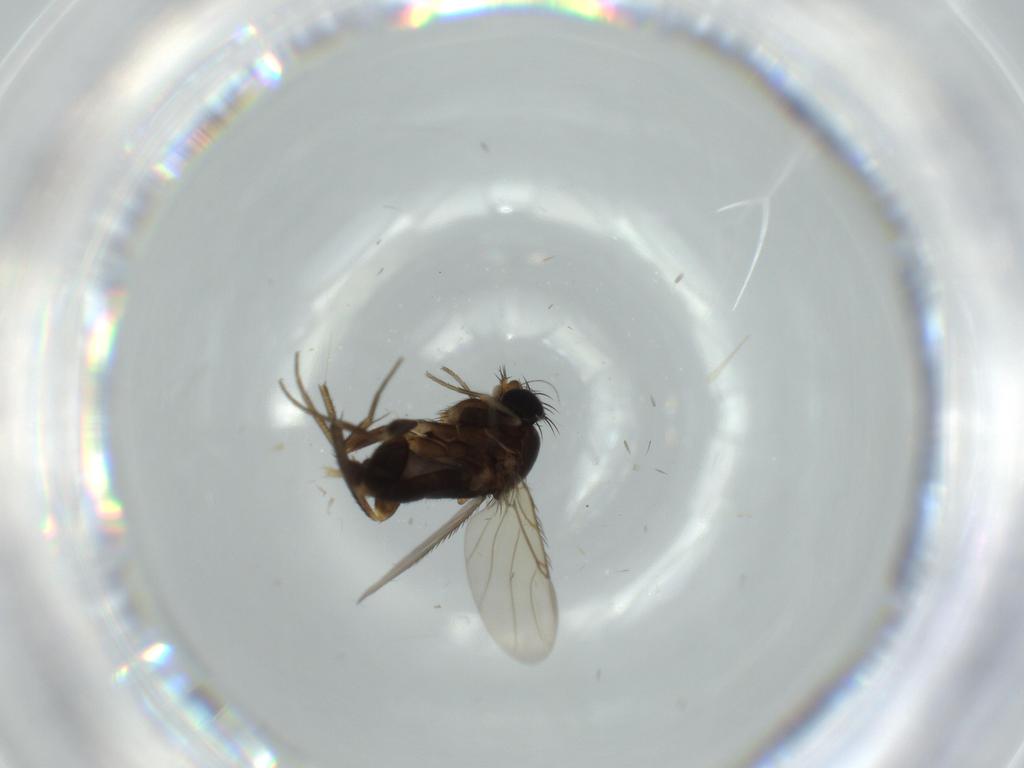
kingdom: Animalia
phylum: Arthropoda
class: Insecta
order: Diptera
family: Phoridae
